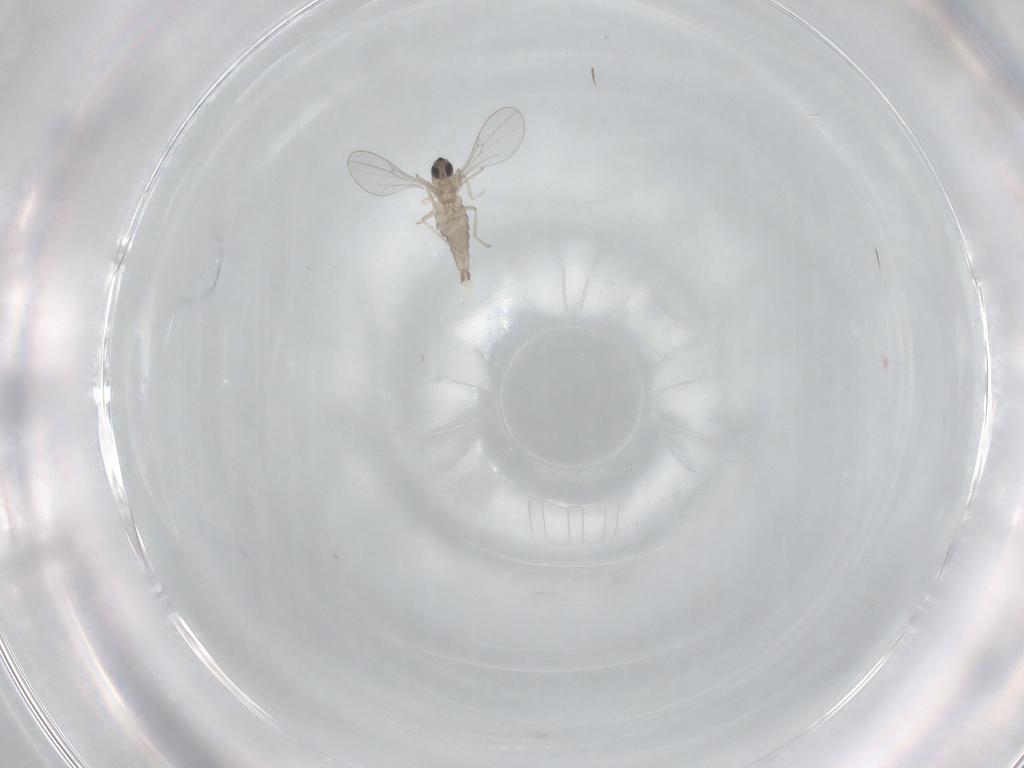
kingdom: Animalia
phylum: Arthropoda
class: Insecta
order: Diptera
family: Cecidomyiidae
